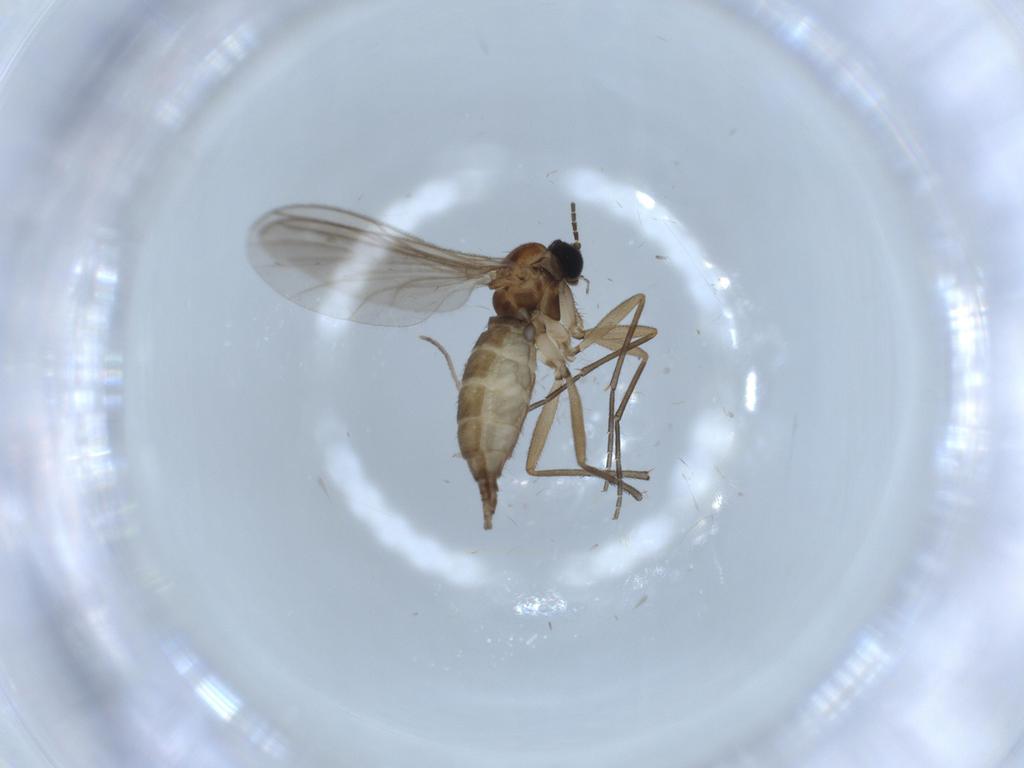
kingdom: Animalia
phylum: Arthropoda
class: Insecta
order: Diptera
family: Sciaridae
